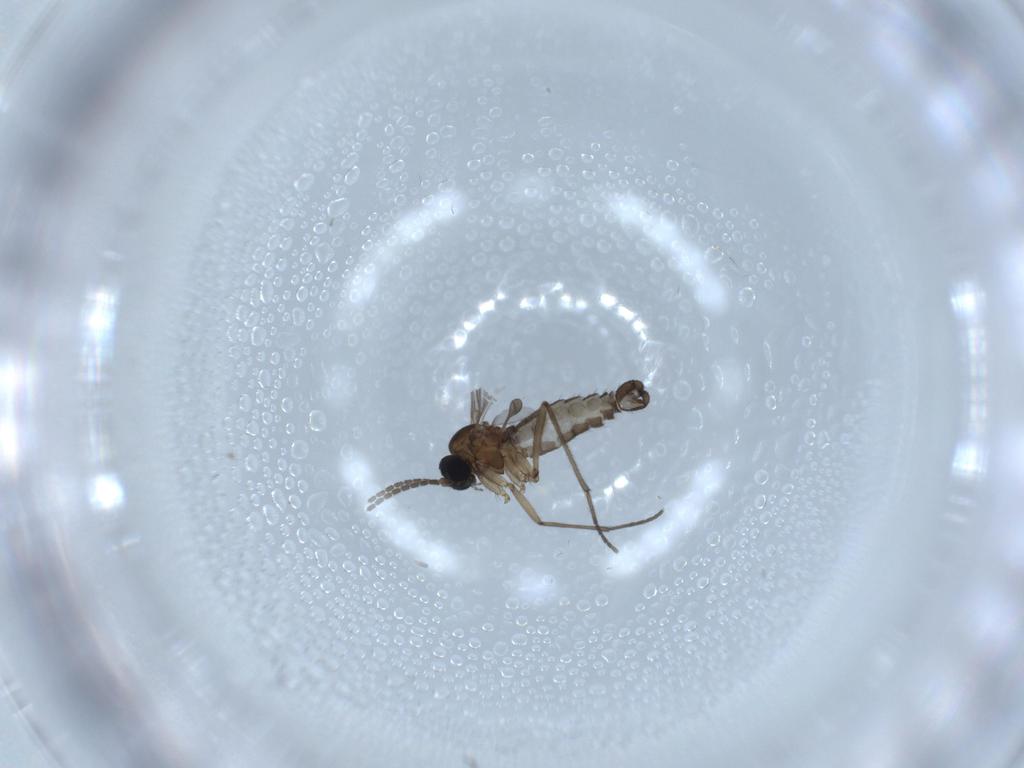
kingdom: Animalia
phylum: Arthropoda
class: Insecta
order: Diptera
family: Sciaridae
